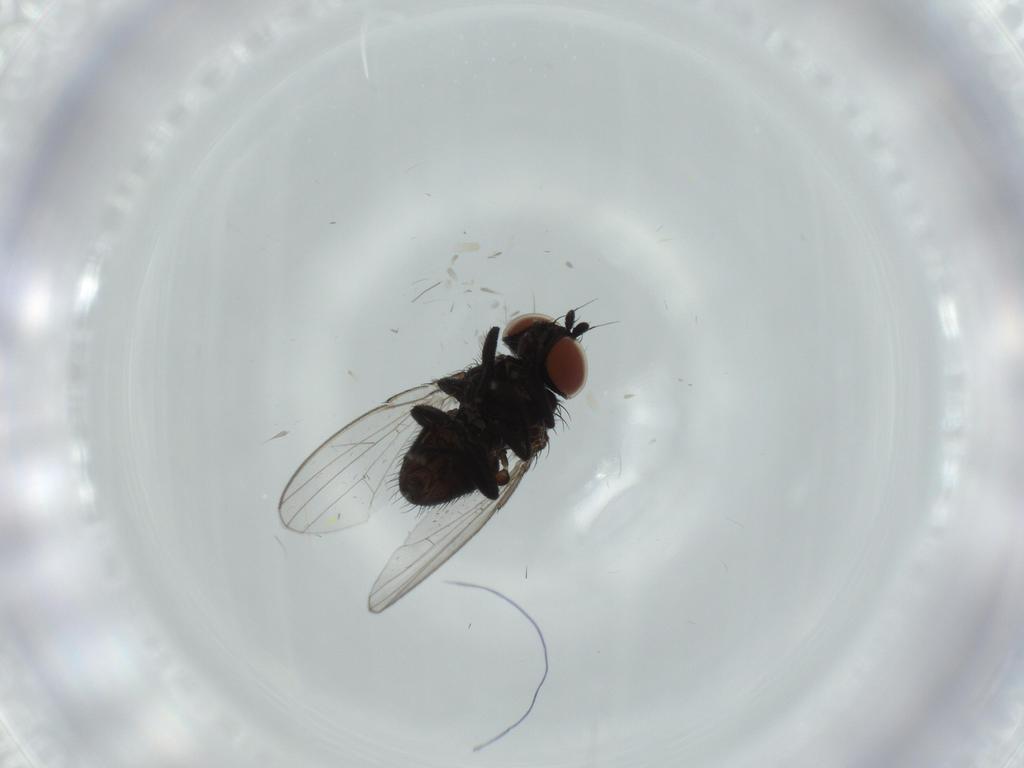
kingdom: Animalia
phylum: Arthropoda
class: Insecta
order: Diptera
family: Milichiidae
